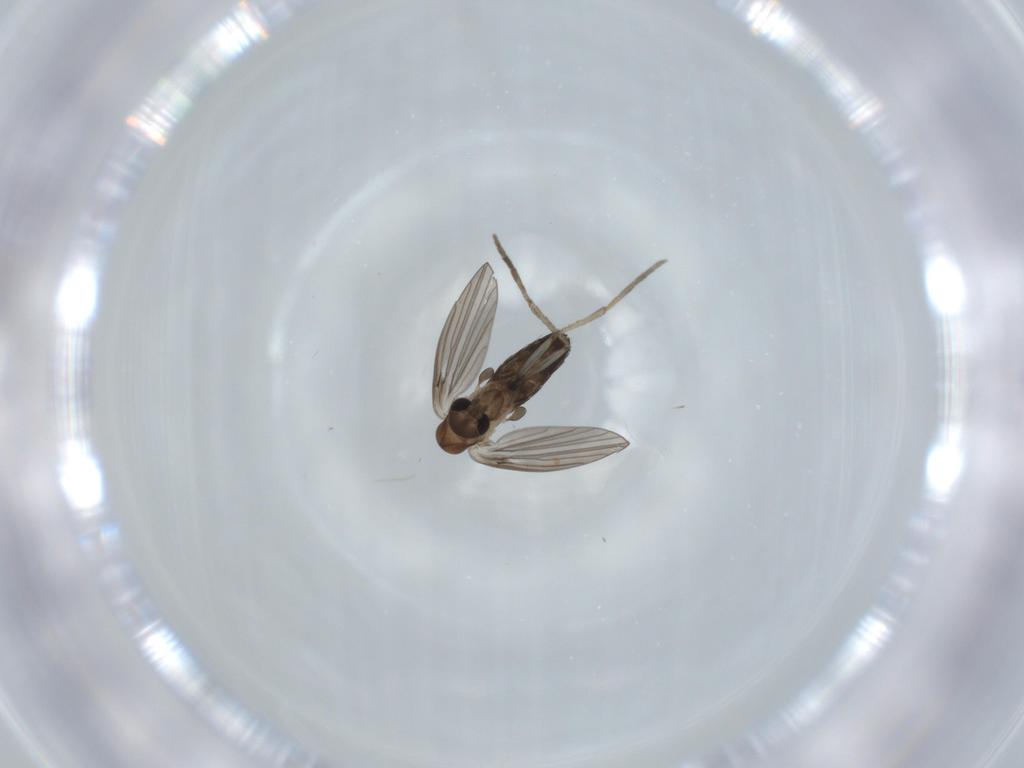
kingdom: Animalia
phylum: Arthropoda
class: Insecta
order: Diptera
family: Psychodidae
